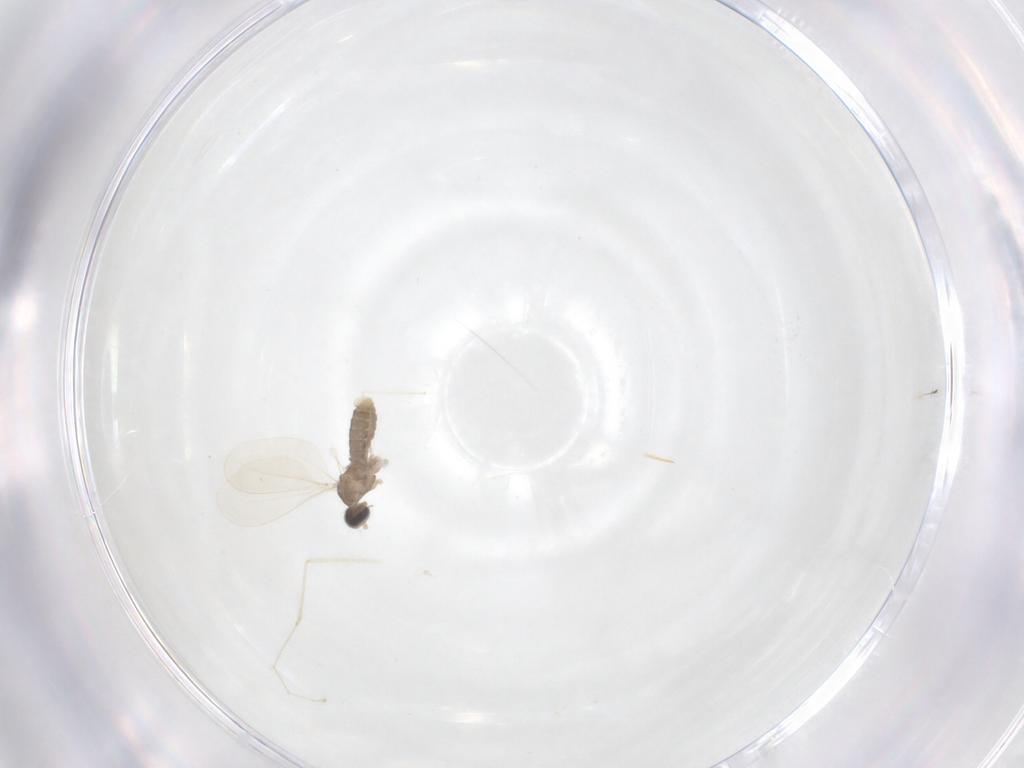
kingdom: Animalia
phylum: Arthropoda
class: Insecta
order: Diptera
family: Cecidomyiidae
